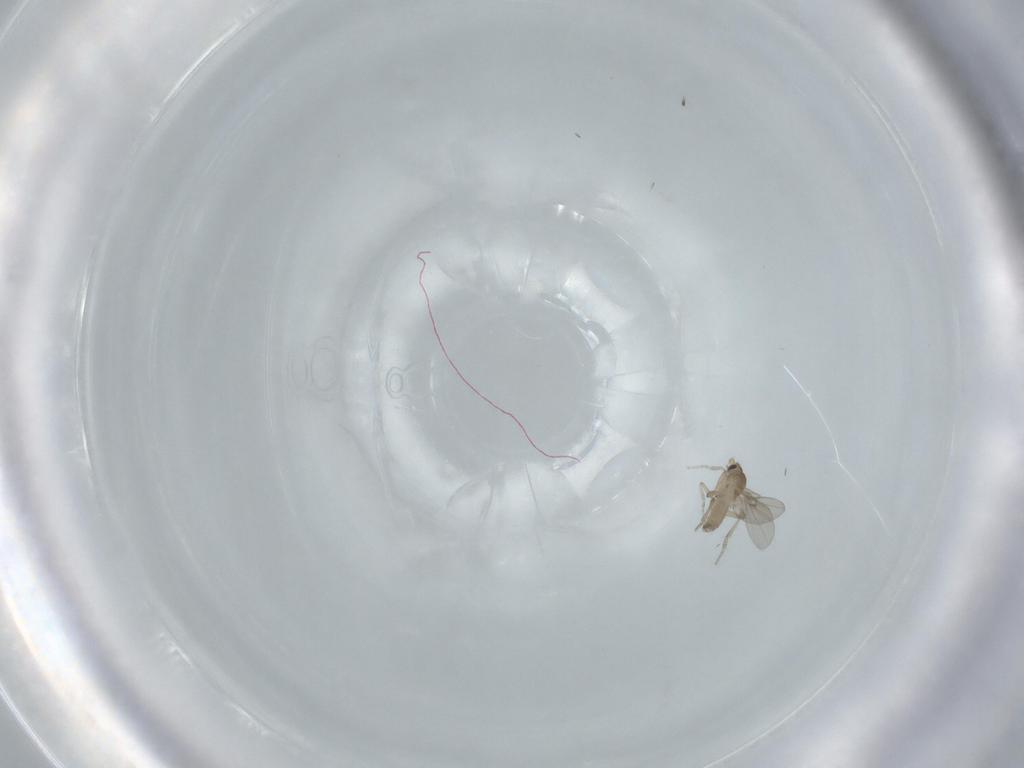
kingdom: Animalia
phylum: Arthropoda
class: Insecta
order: Diptera
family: Cecidomyiidae
